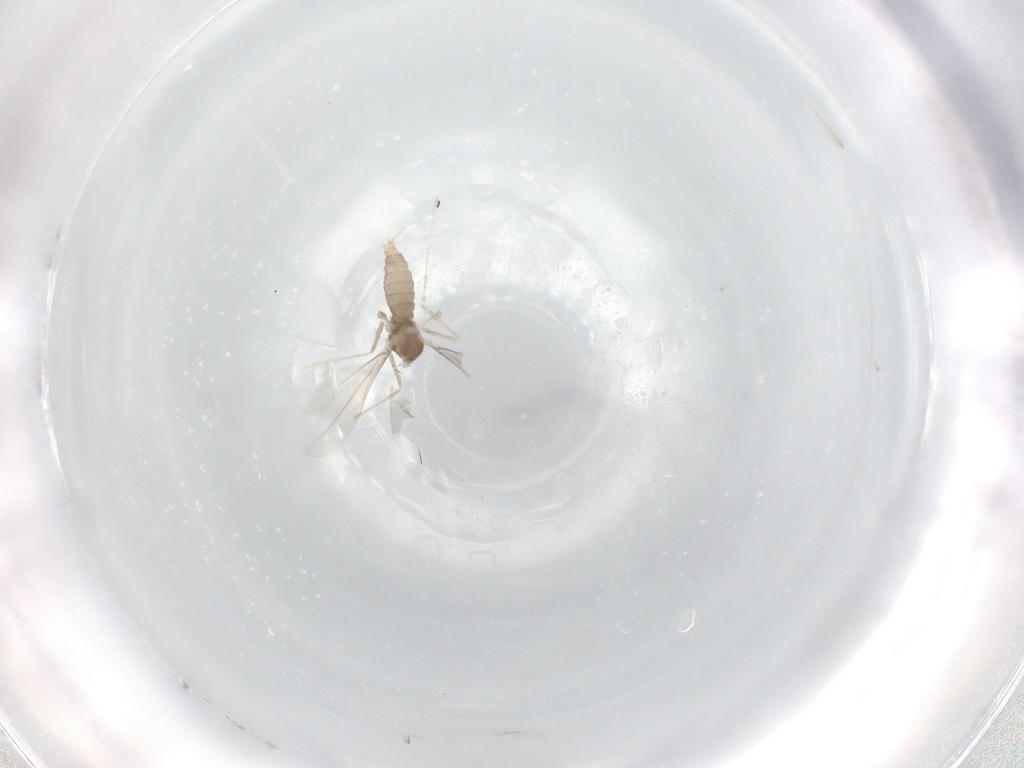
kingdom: Animalia
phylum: Arthropoda
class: Insecta
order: Diptera
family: Cecidomyiidae
